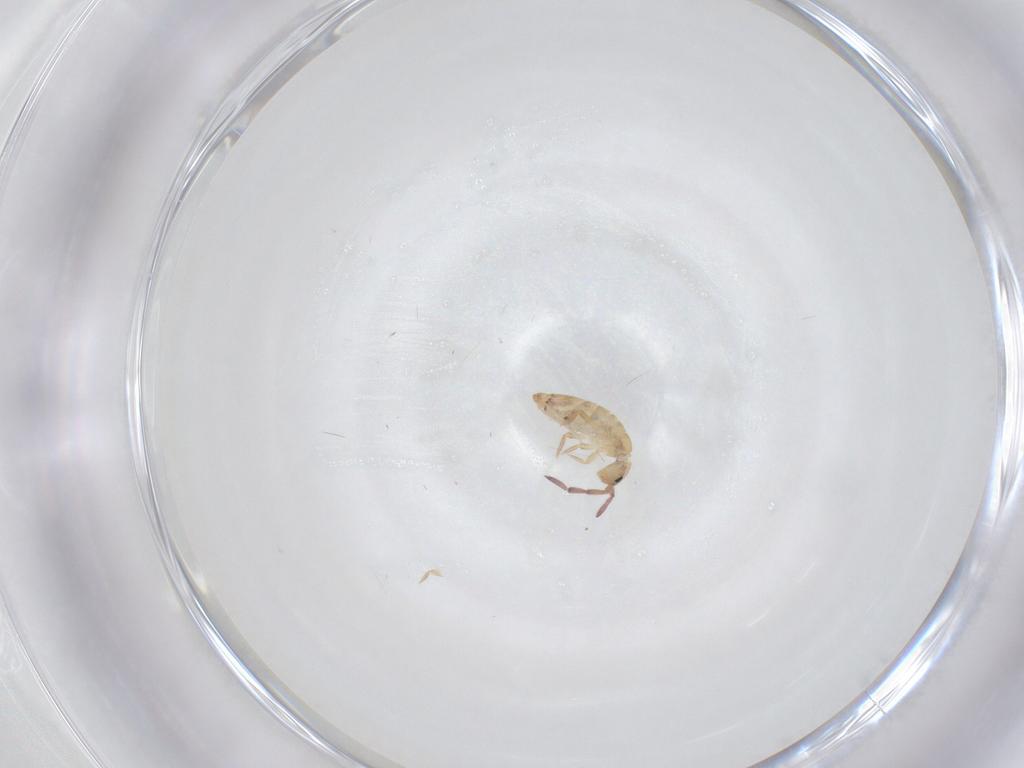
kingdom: Animalia
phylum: Arthropoda
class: Collembola
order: Entomobryomorpha
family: Entomobryidae
